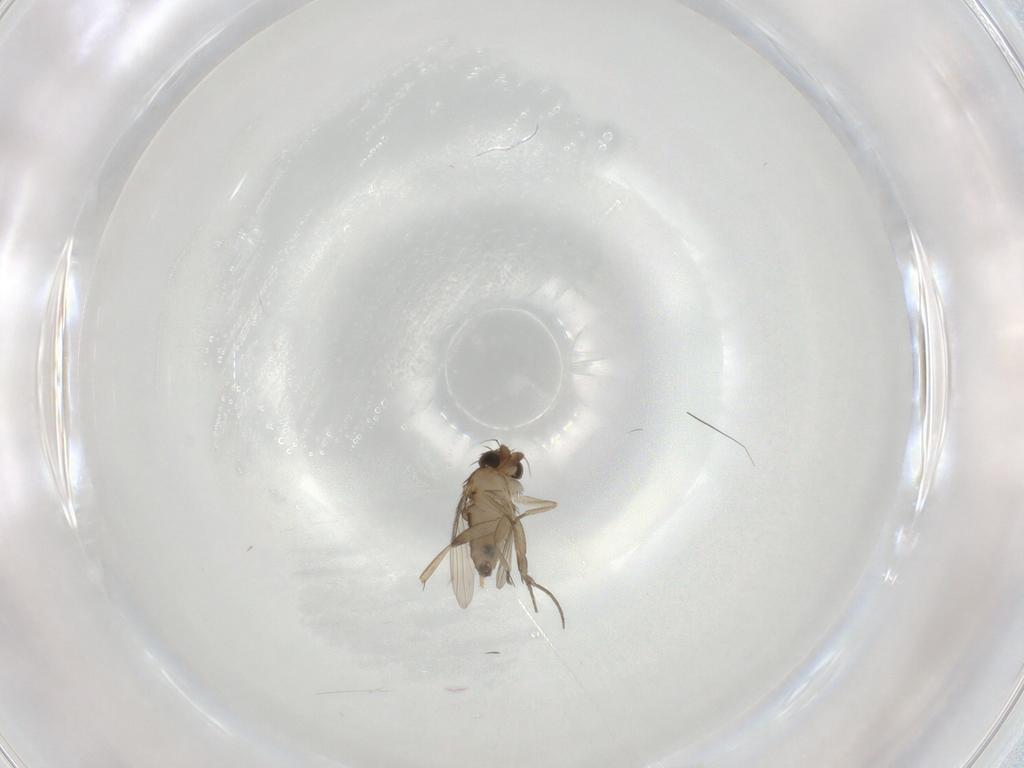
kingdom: Animalia
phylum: Arthropoda
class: Insecta
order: Diptera
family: Phoridae
